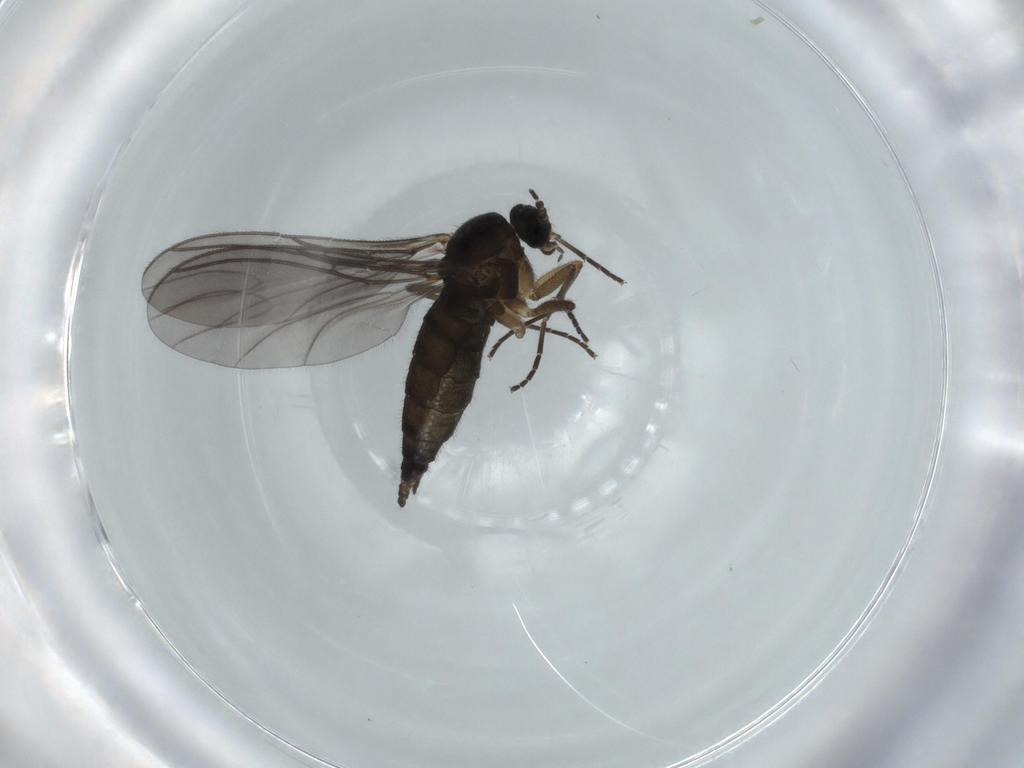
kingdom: Animalia
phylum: Arthropoda
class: Insecta
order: Diptera
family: Sciaridae
